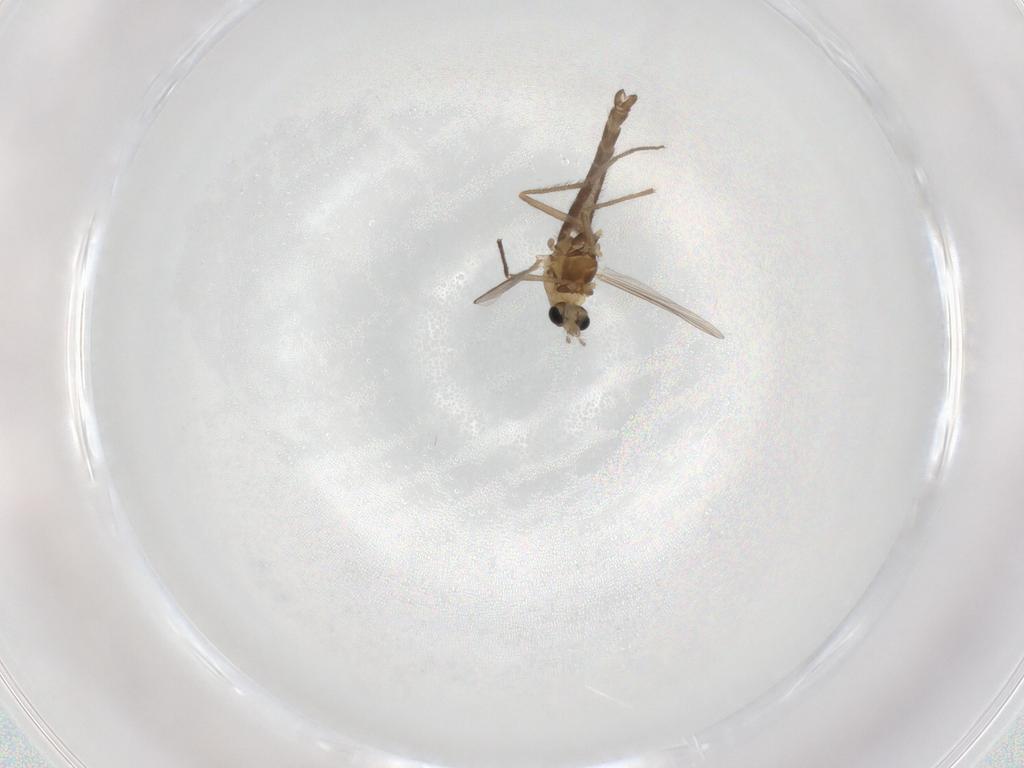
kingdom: Animalia
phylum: Arthropoda
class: Insecta
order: Diptera
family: Chironomidae
